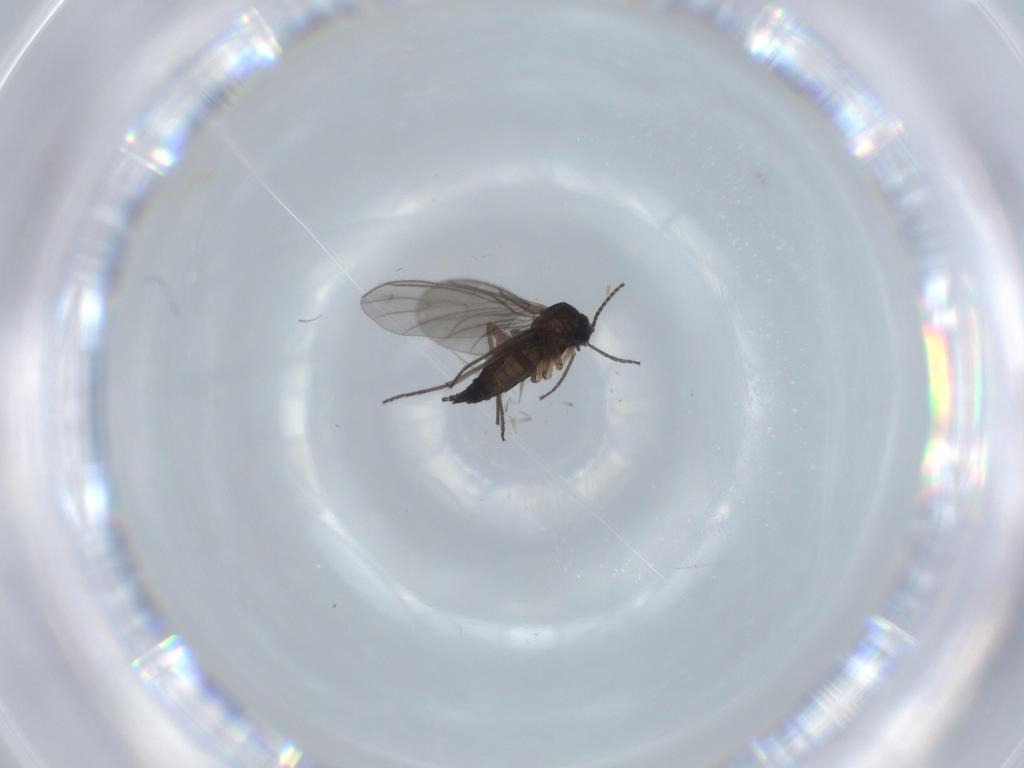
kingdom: Animalia
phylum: Arthropoda
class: Insecta
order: Diptera
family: Sciaridae
